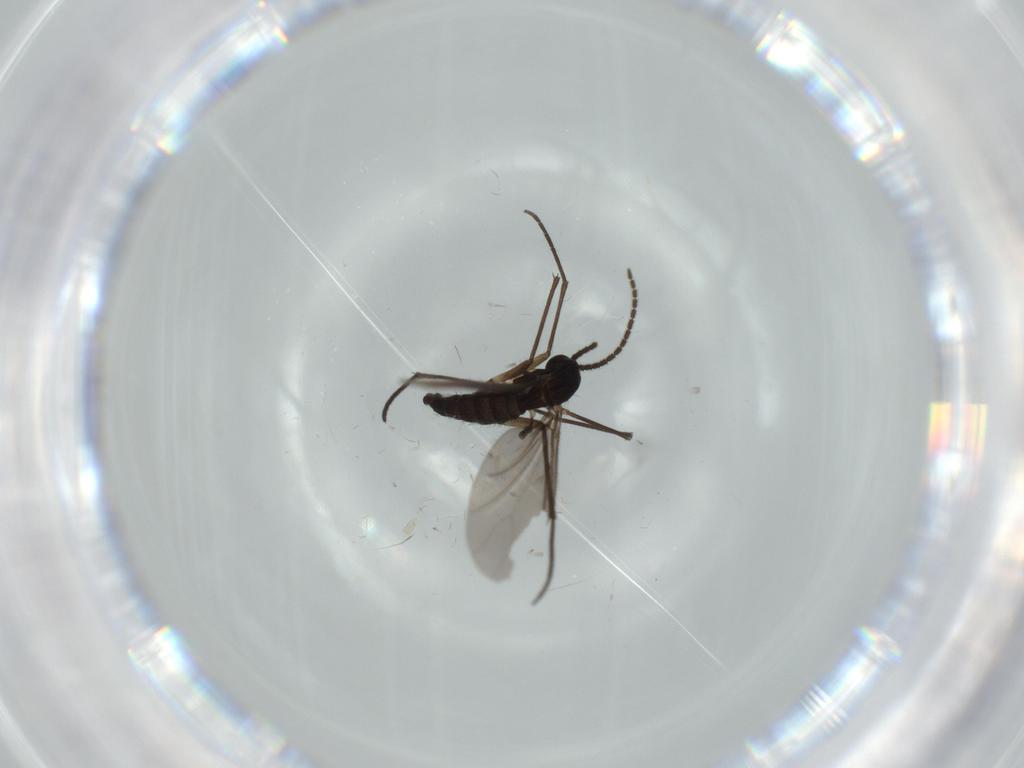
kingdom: Animalia
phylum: Arthropoda
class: Insecta
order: Diptera
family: Sciaridae
